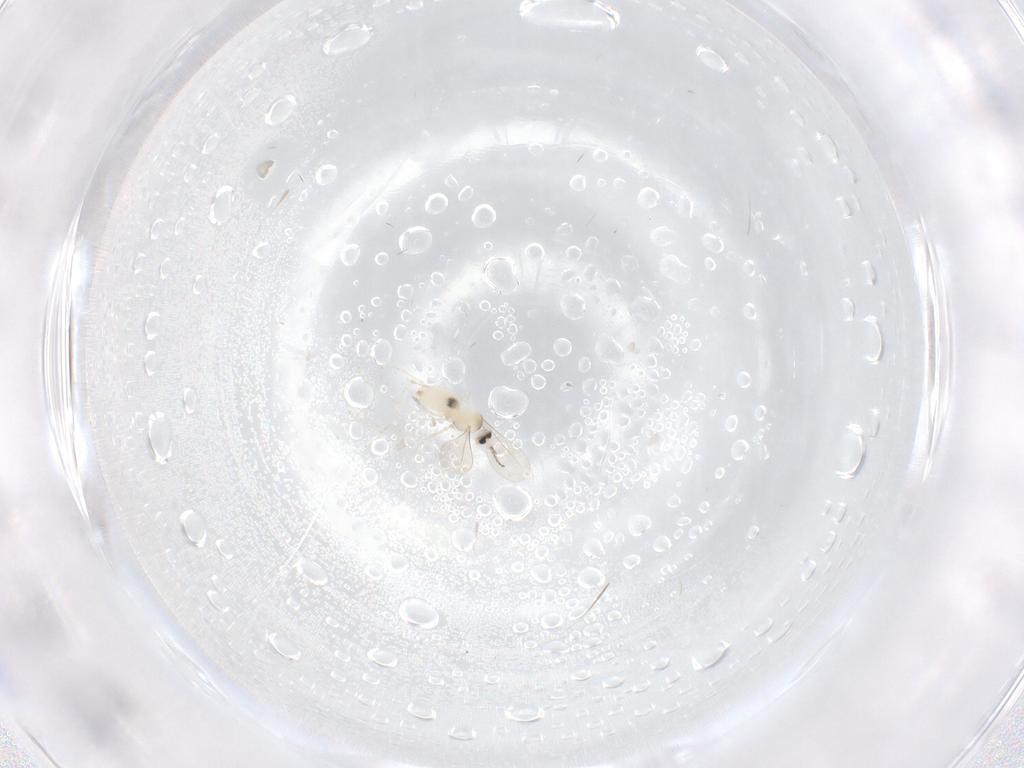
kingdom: Animalia
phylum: Arthropoda
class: Insecta
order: Diptera
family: Cecidomyiidae
